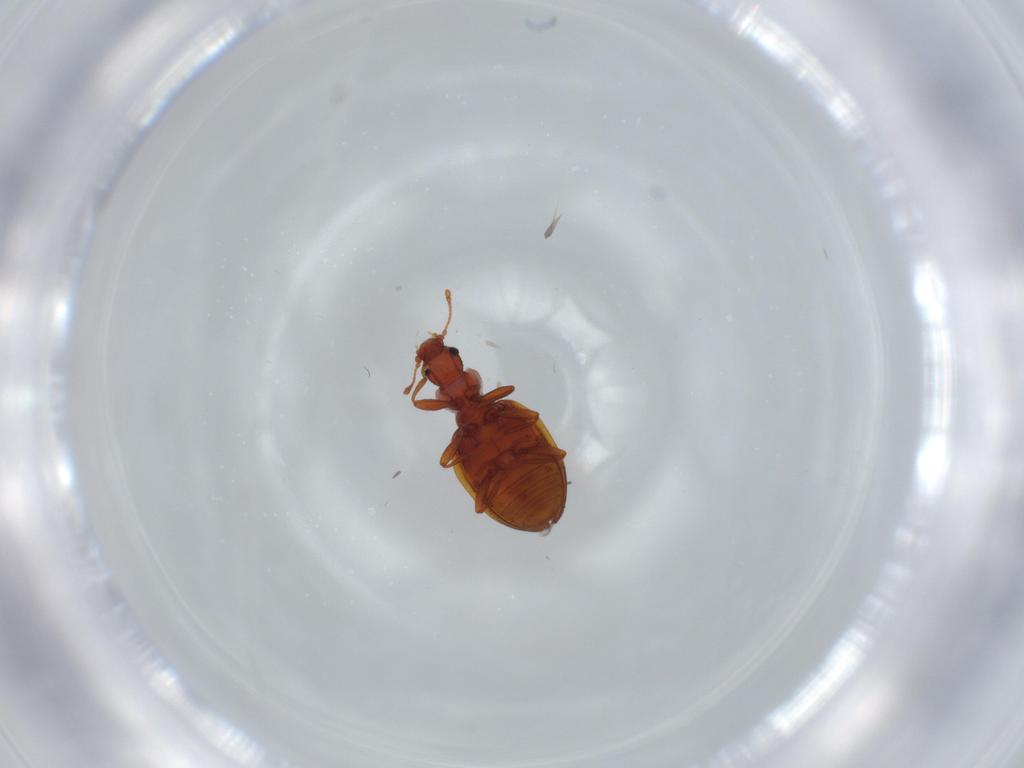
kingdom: Animalia
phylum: Arthropoda
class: Insecta
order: Coleoptera
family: Latridiidae
